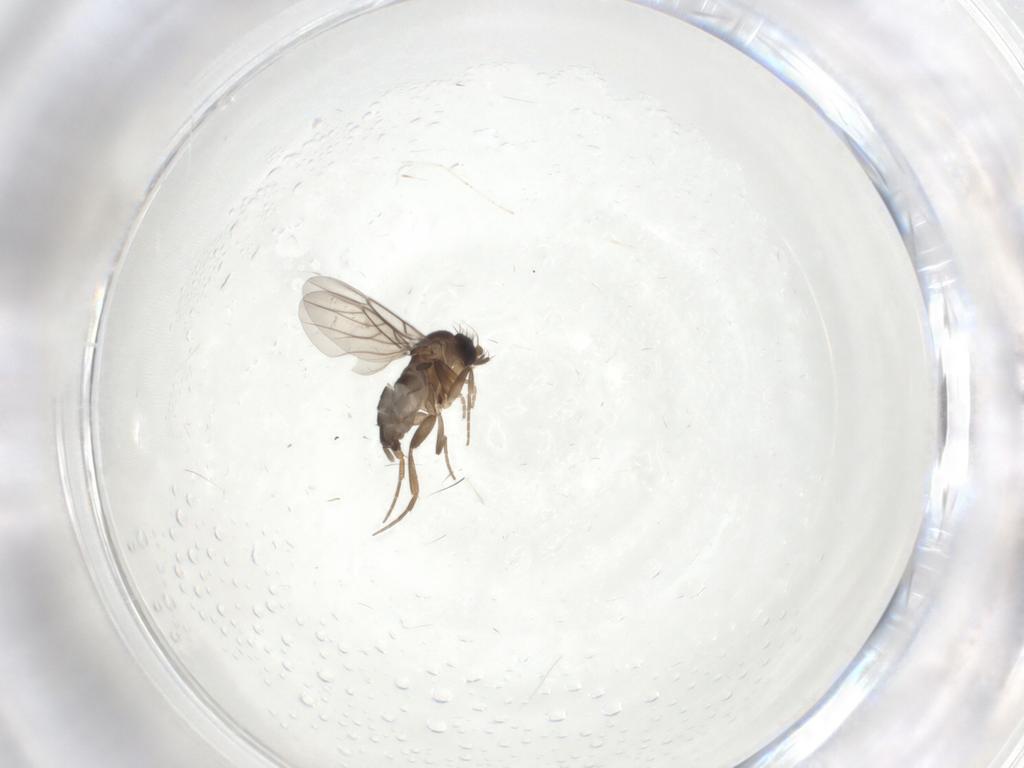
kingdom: Animalia
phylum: Arthropoda
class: Insecta
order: Diptera
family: Phoridae
